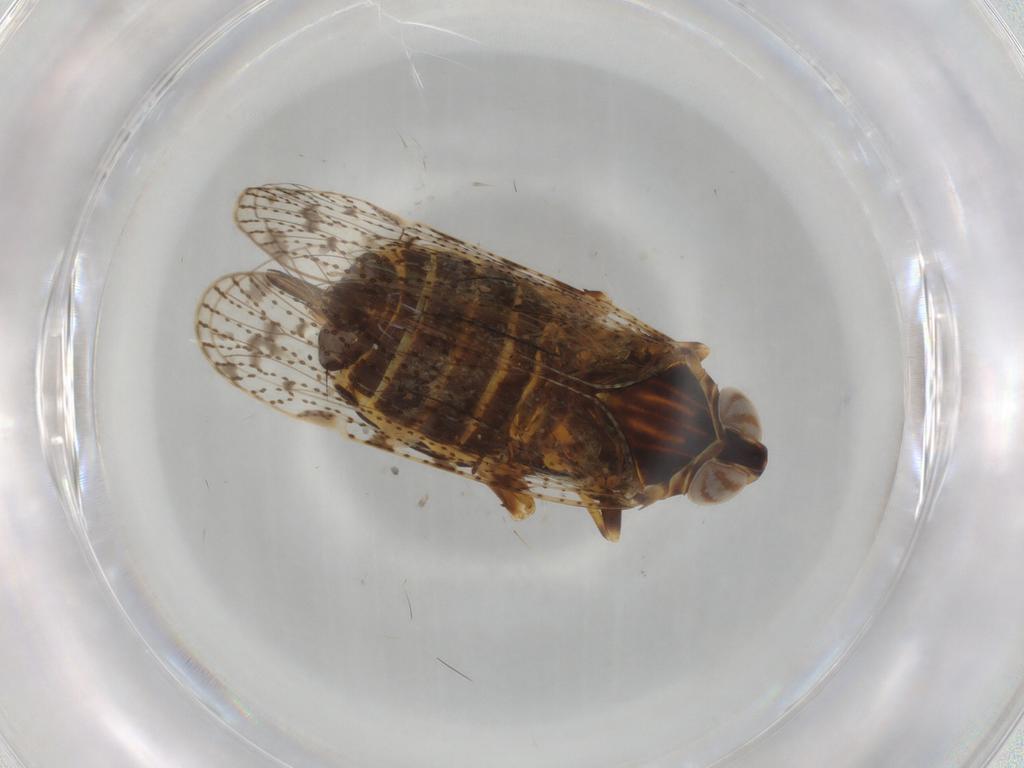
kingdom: Animalia
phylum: Arthropoda
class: Insecta
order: Hemiptera
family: Cixiidae
